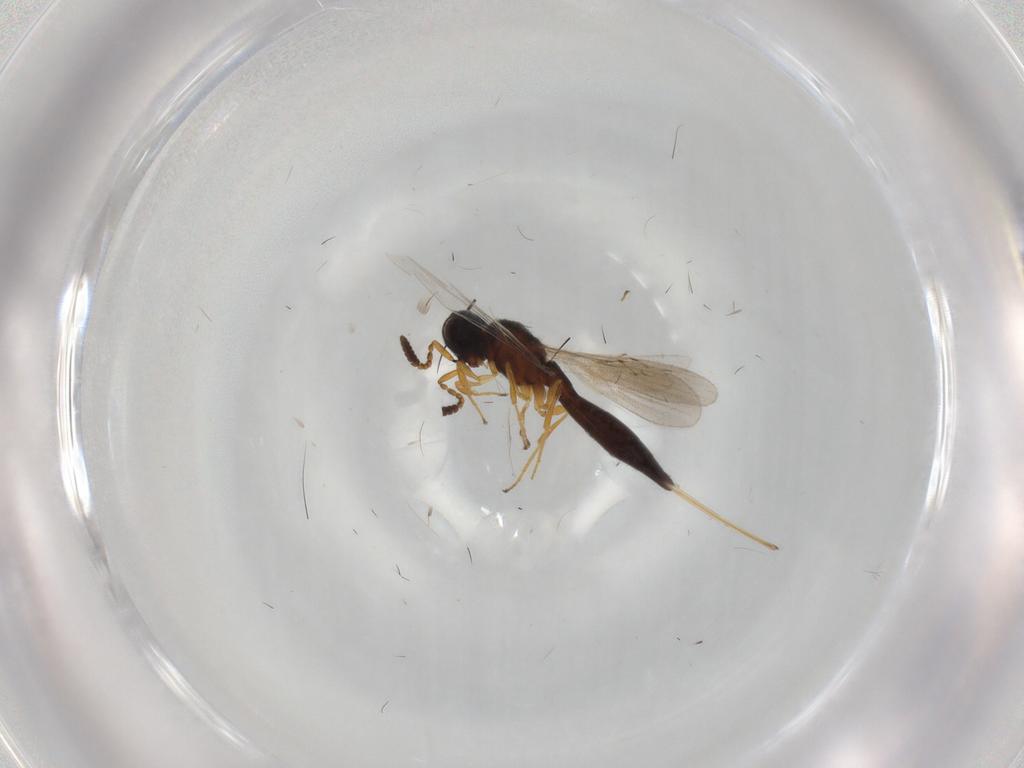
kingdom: Animalia
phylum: Arthropoda
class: Insecta
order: Hymenoptera
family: Scelionidae
